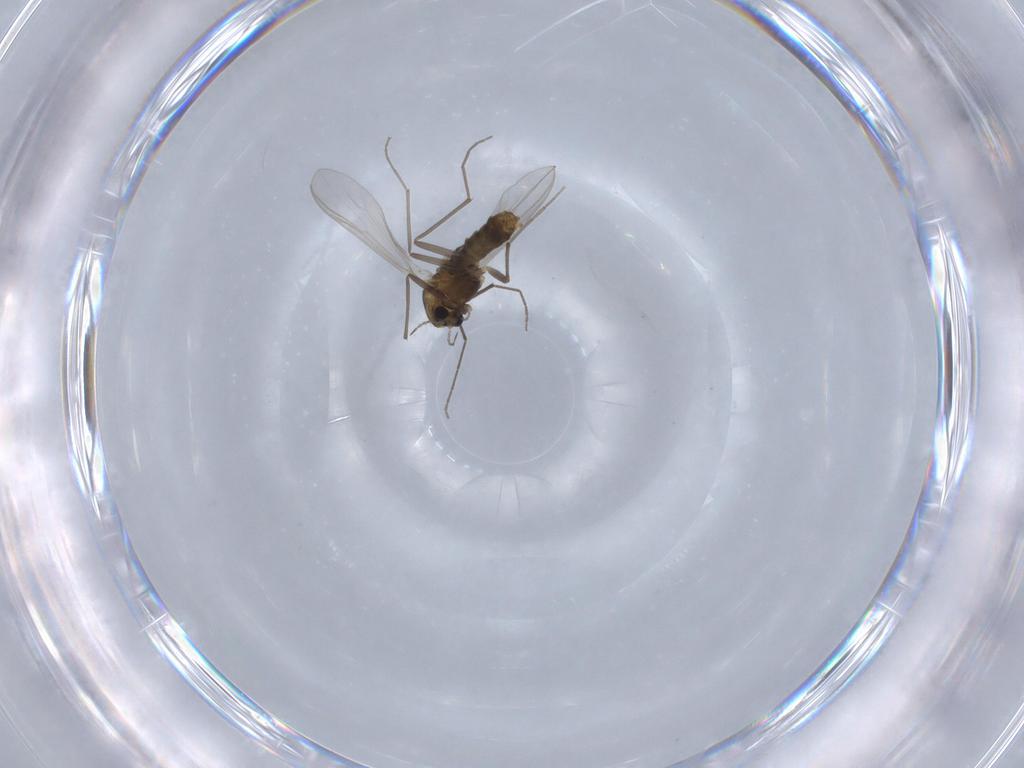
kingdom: Animalia
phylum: Arthropoda
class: Insecta
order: Diptera
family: Chironomidae
